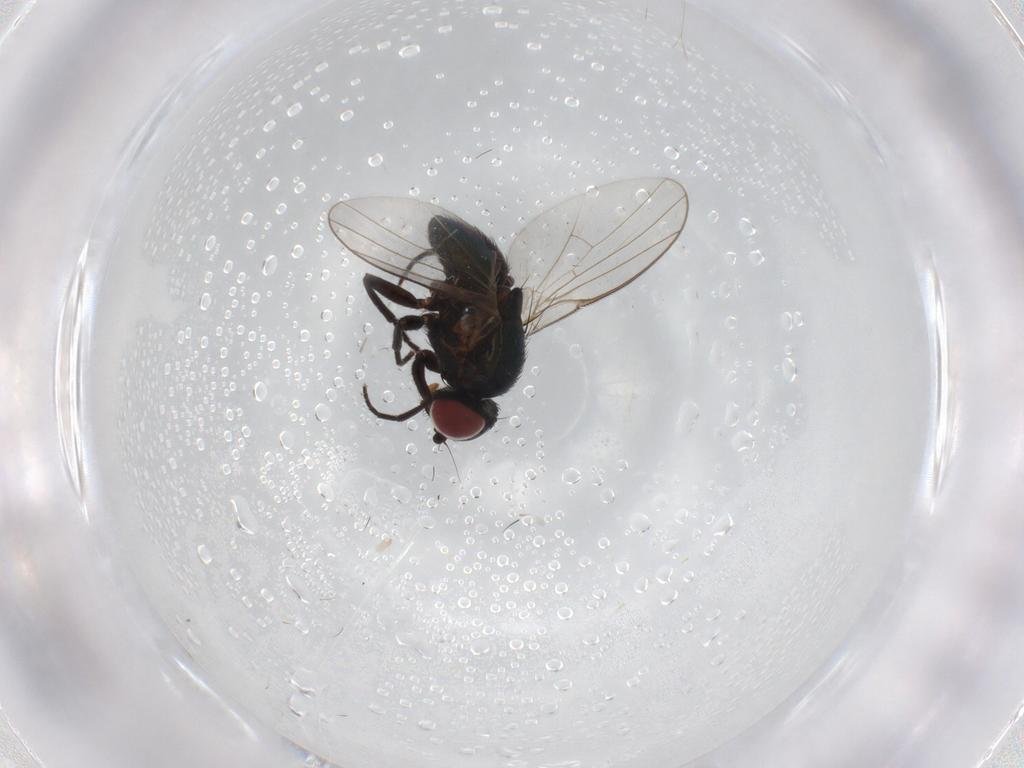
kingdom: Animalia
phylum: Arthropoda
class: Insecta
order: Diptera
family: Agromyzidae
